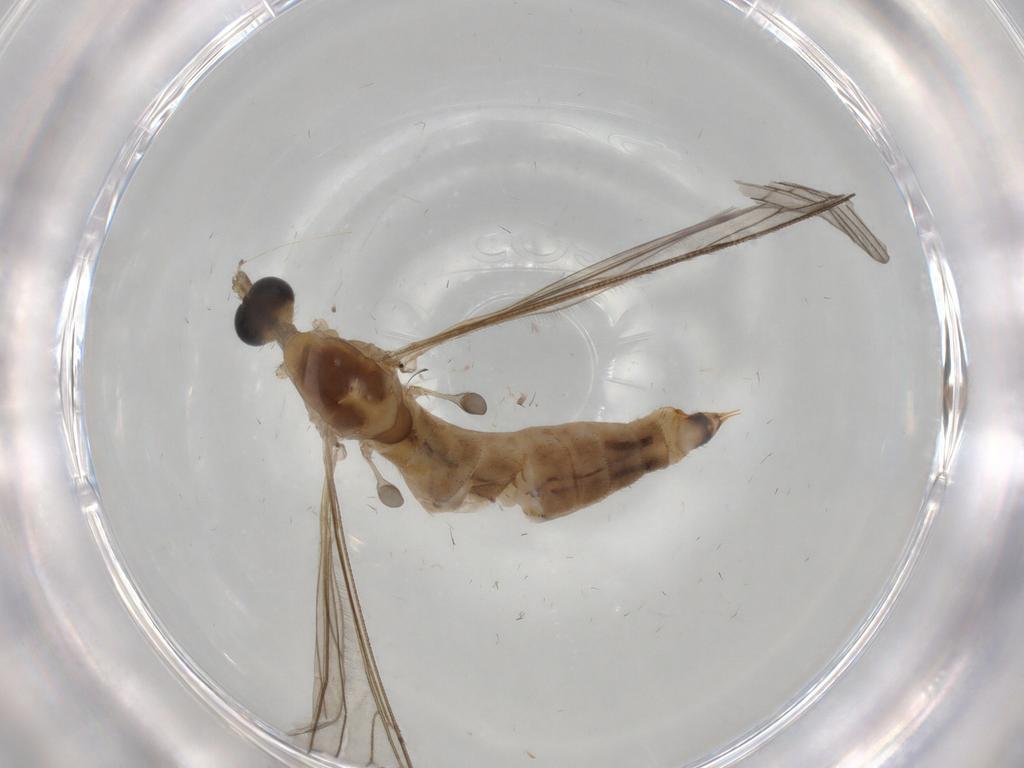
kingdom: Animalia
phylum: Arthropoda
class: Insecta
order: Diptera
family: Limoniidae
